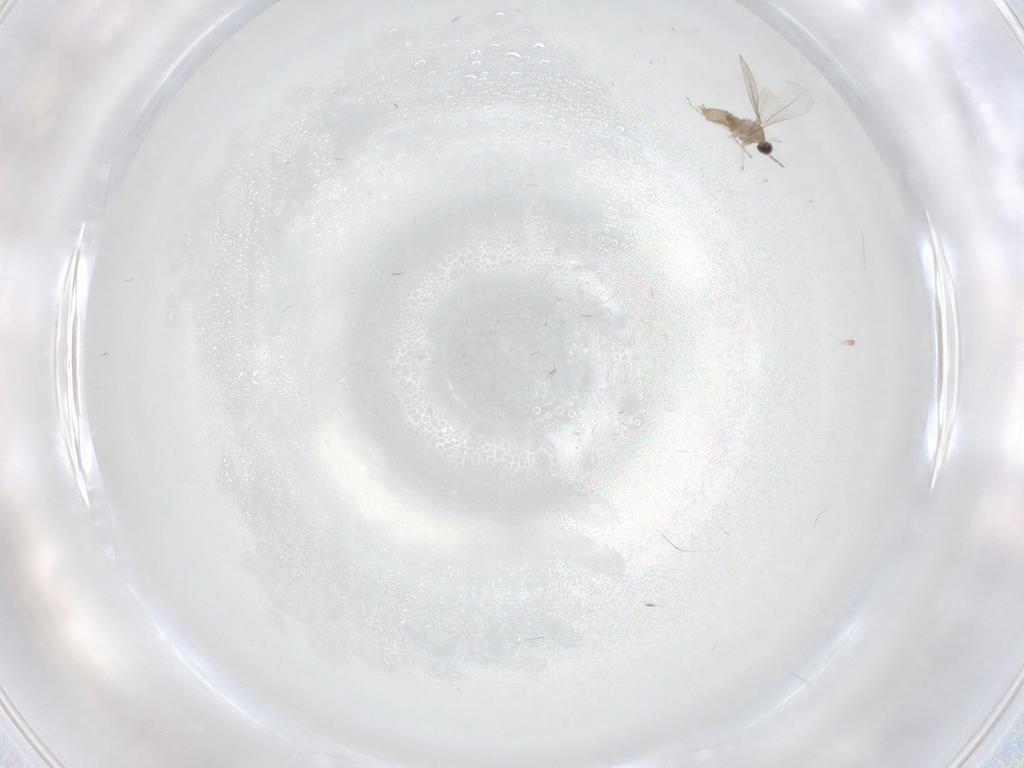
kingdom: Animalia
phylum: Arthropoda
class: Insecta
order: Diptera
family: Cecidomyiidae
